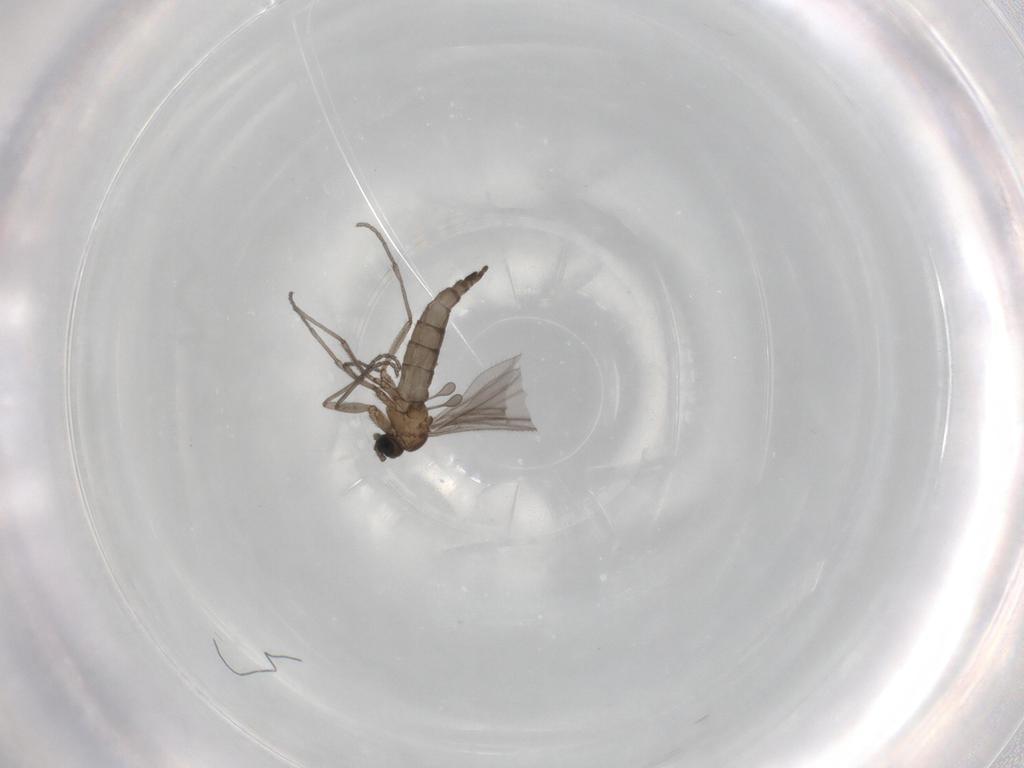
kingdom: Animalia
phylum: Arthropoda
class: Insecta
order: Diptera
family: Sciaridae
